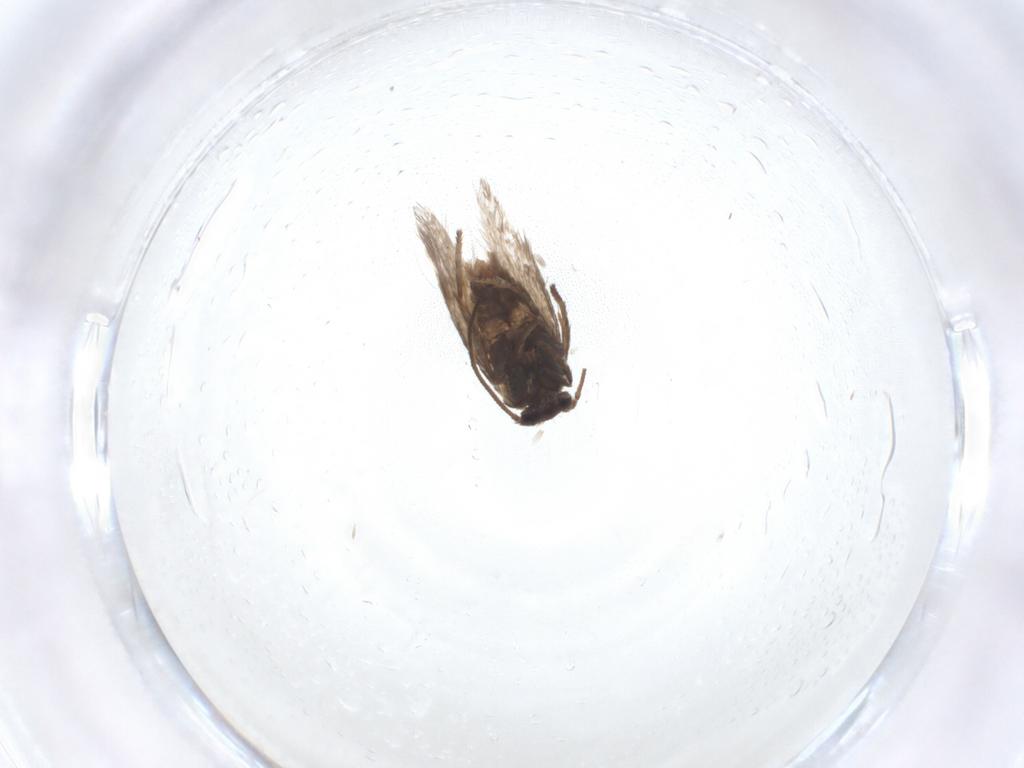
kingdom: Animalia
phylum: Arthropoda
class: Insecta
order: Lepidoptera
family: Nepticulidae
